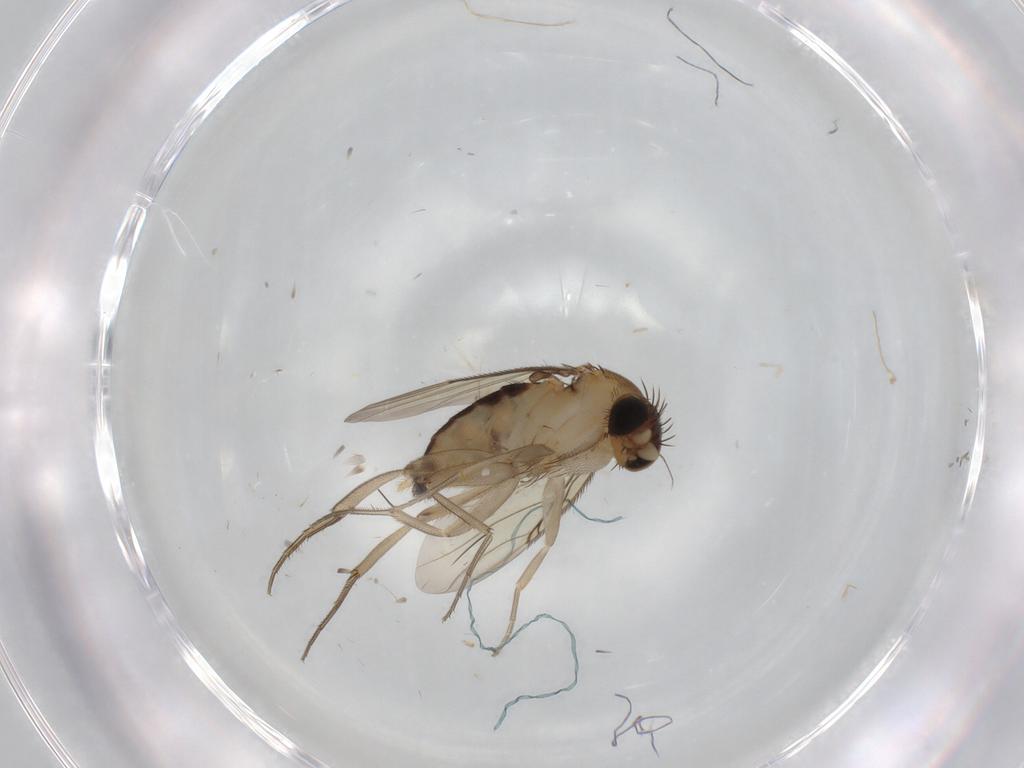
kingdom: Animalia
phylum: Arthropoda
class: Insecta
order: Diptera
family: Phoridae
